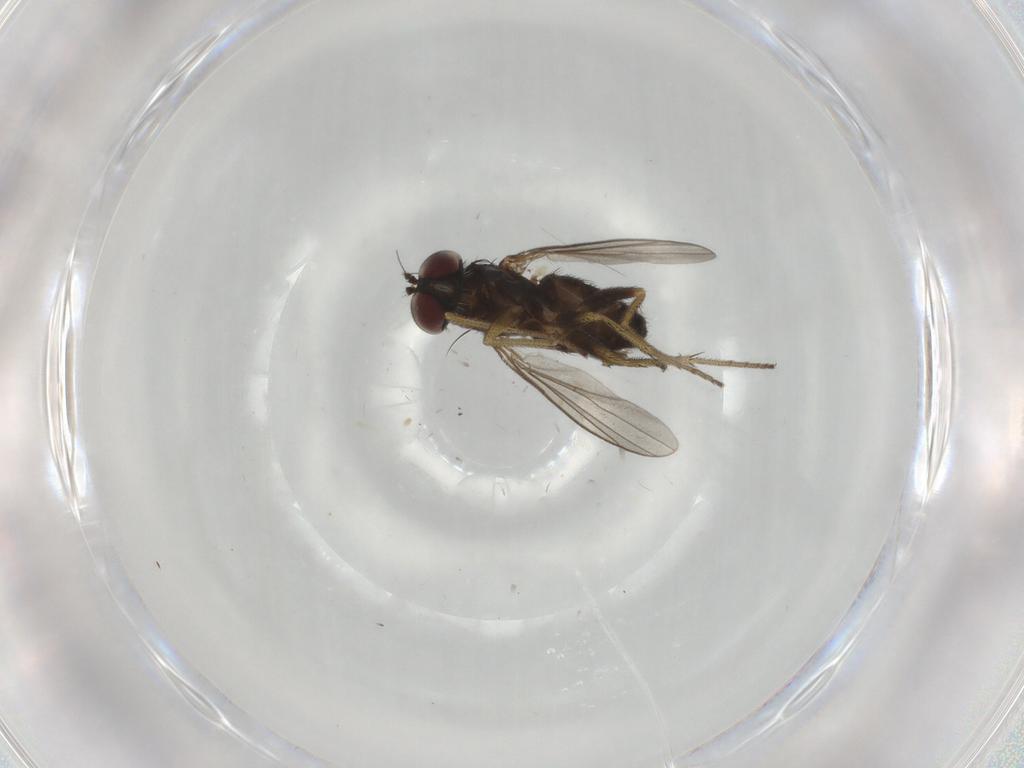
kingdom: Animalia
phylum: Arthropoda
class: Insecta
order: Diptera
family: Dolichopodidae
